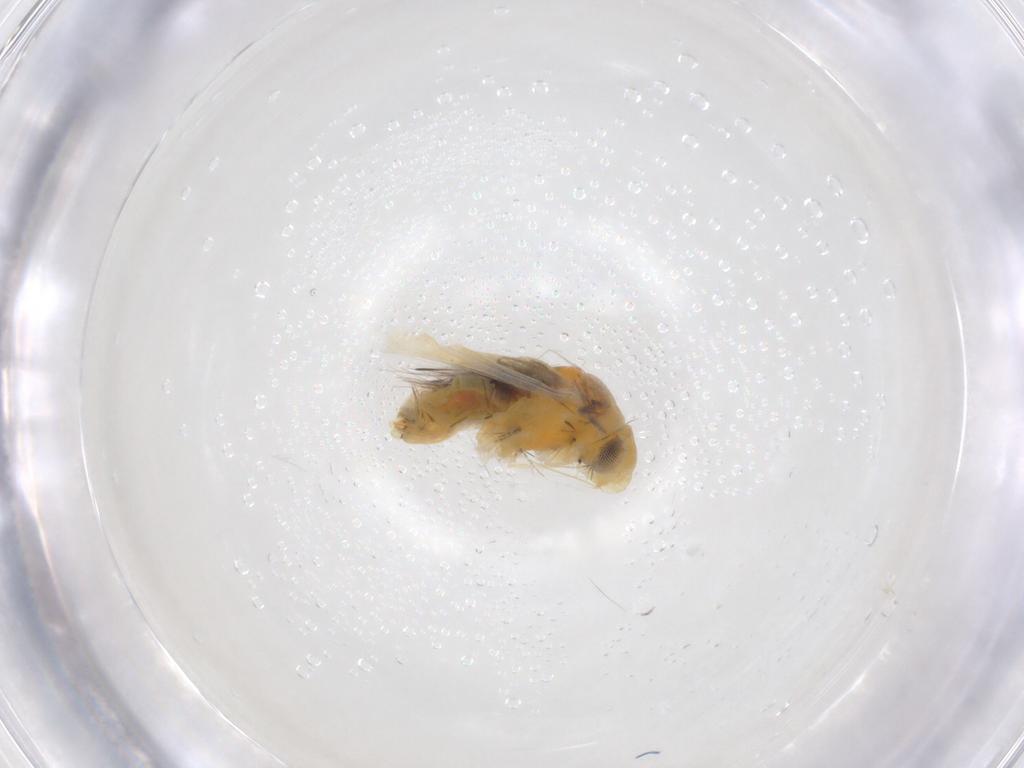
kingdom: Animalia
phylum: Arthropoda
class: Insecta
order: Hemiptera
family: Miridae
